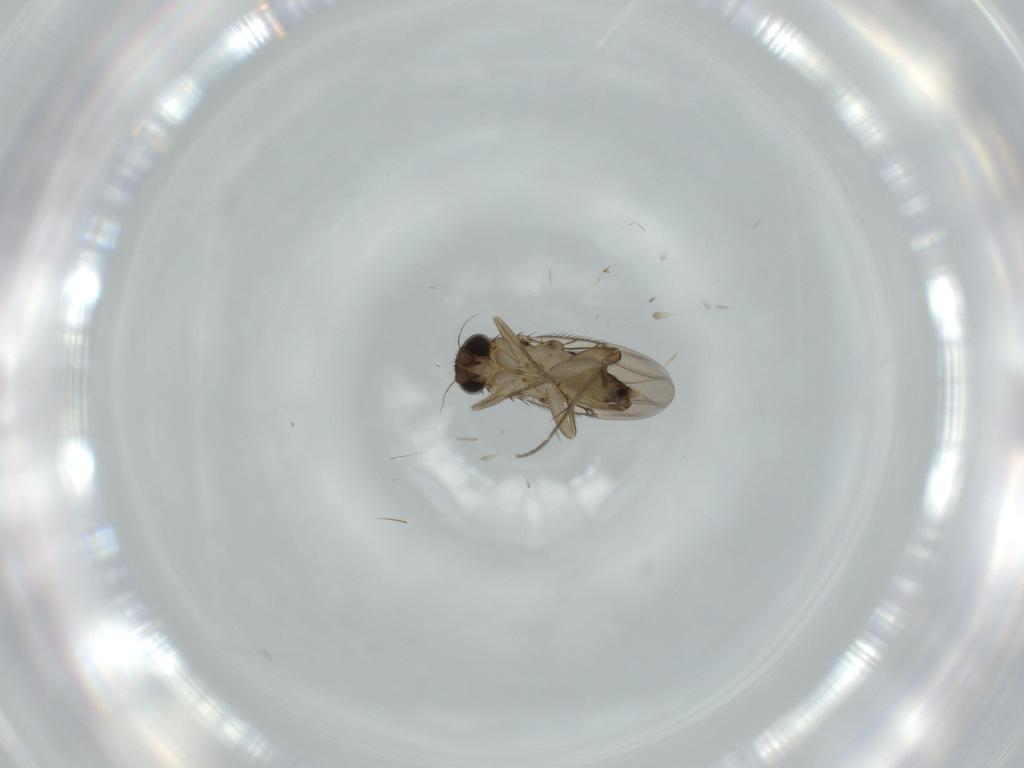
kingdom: Animalia
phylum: Arthropoda
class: Insecta
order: Diptera
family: Phoridae
